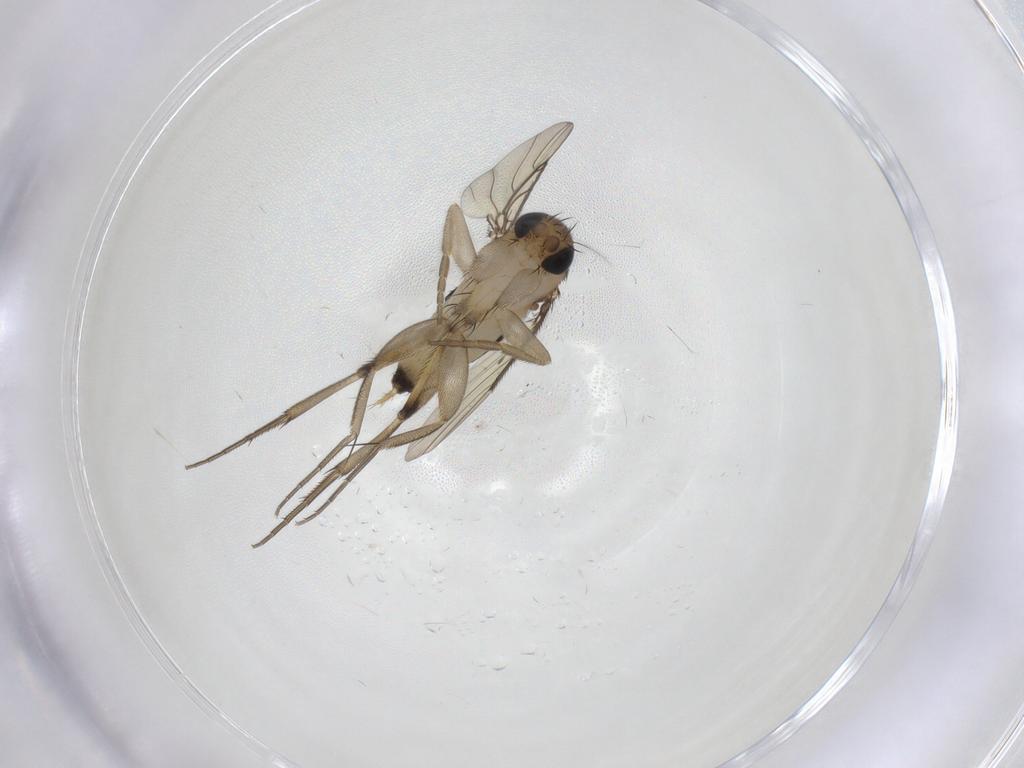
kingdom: Animalia
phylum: Arthropoda
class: Insecta
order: Diptera
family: Phoridae
